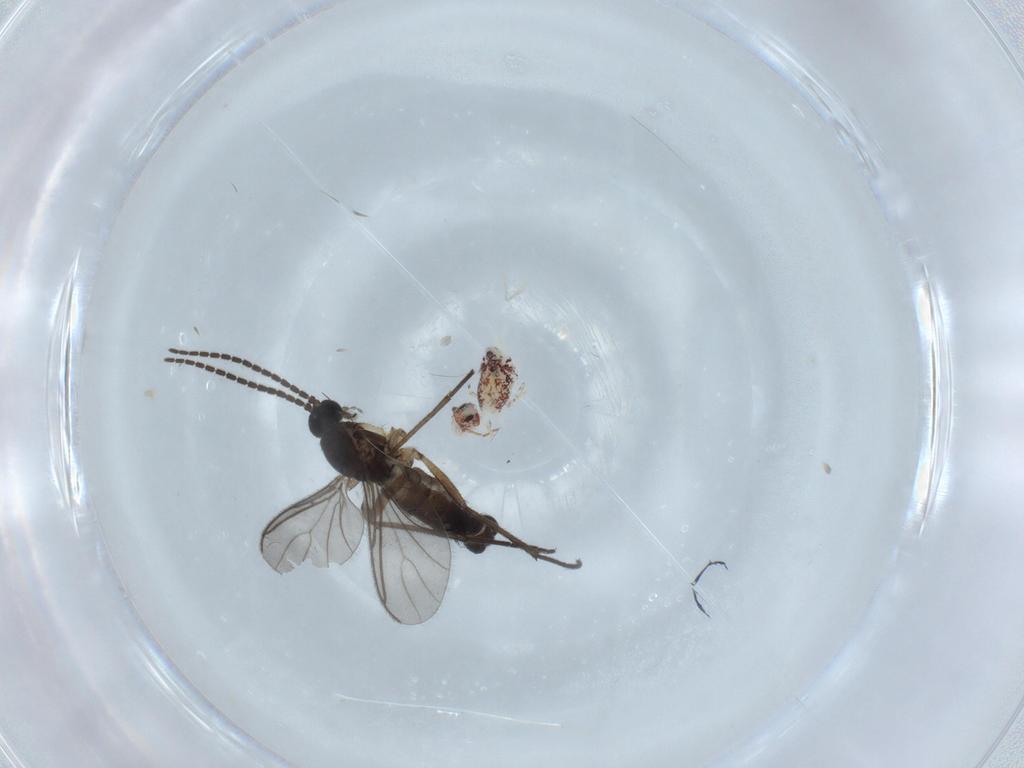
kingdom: Animalia
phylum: Arthropoda
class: Insecta
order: Diptera
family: Sciaridae
